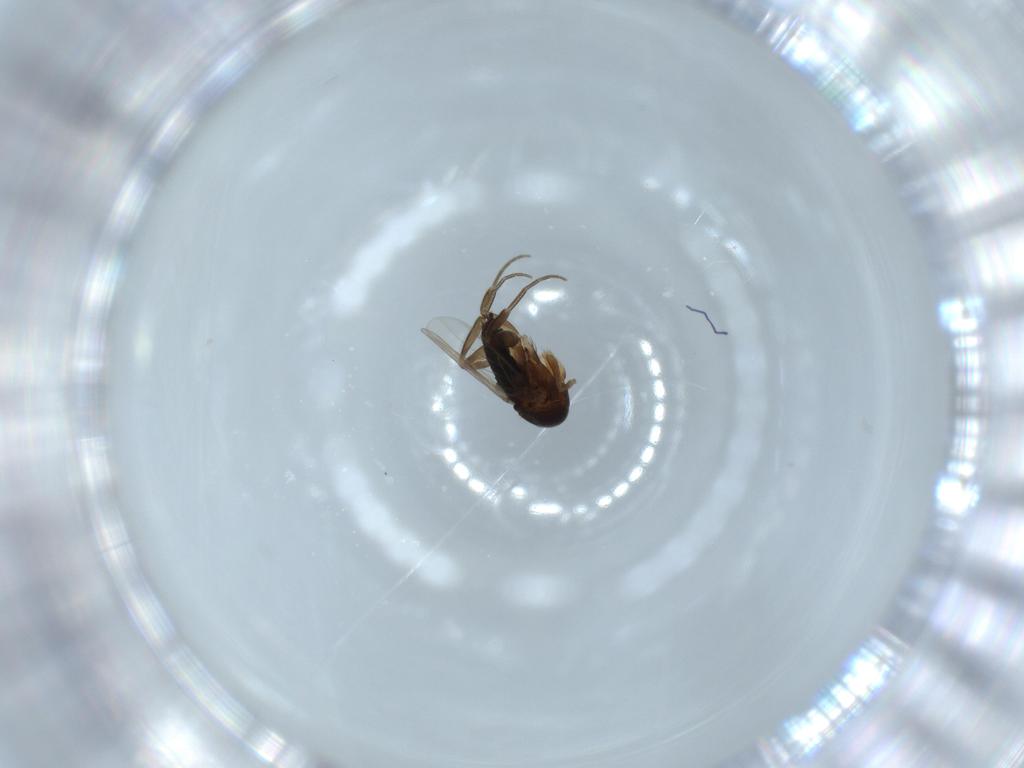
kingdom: Animalia
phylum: Arthropoda
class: Insecta
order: Diptera
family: Phoridae
